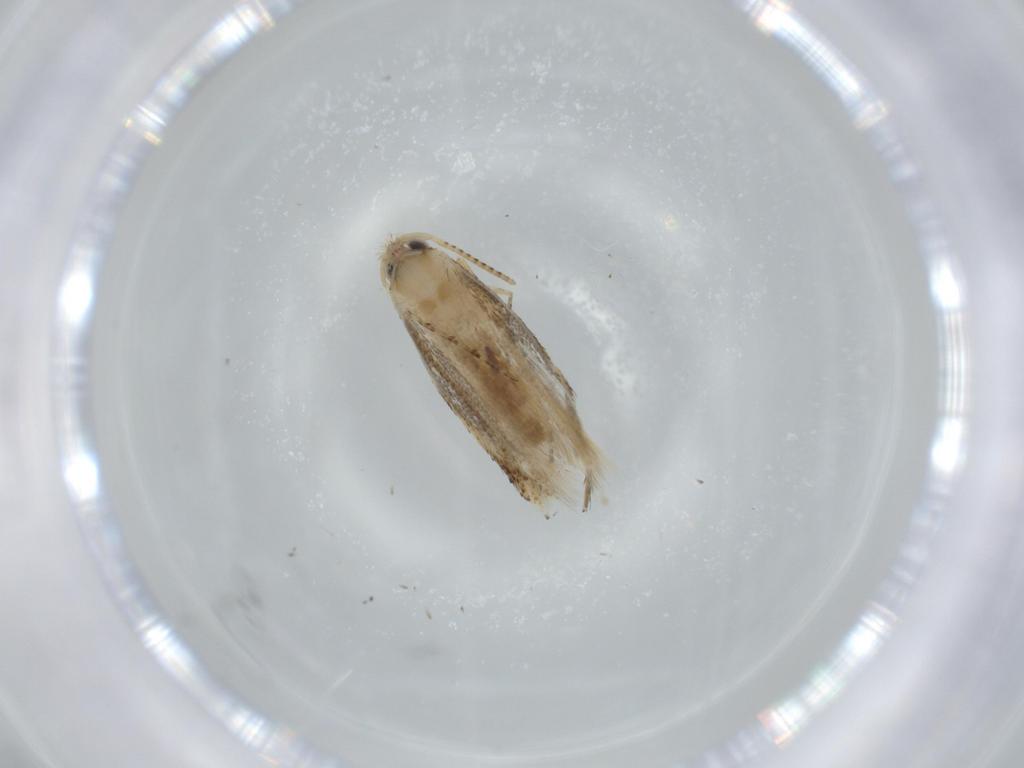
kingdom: Animalia
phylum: Arthropoda
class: Insecta
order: Lepidoptera
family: Bucculatricidae
